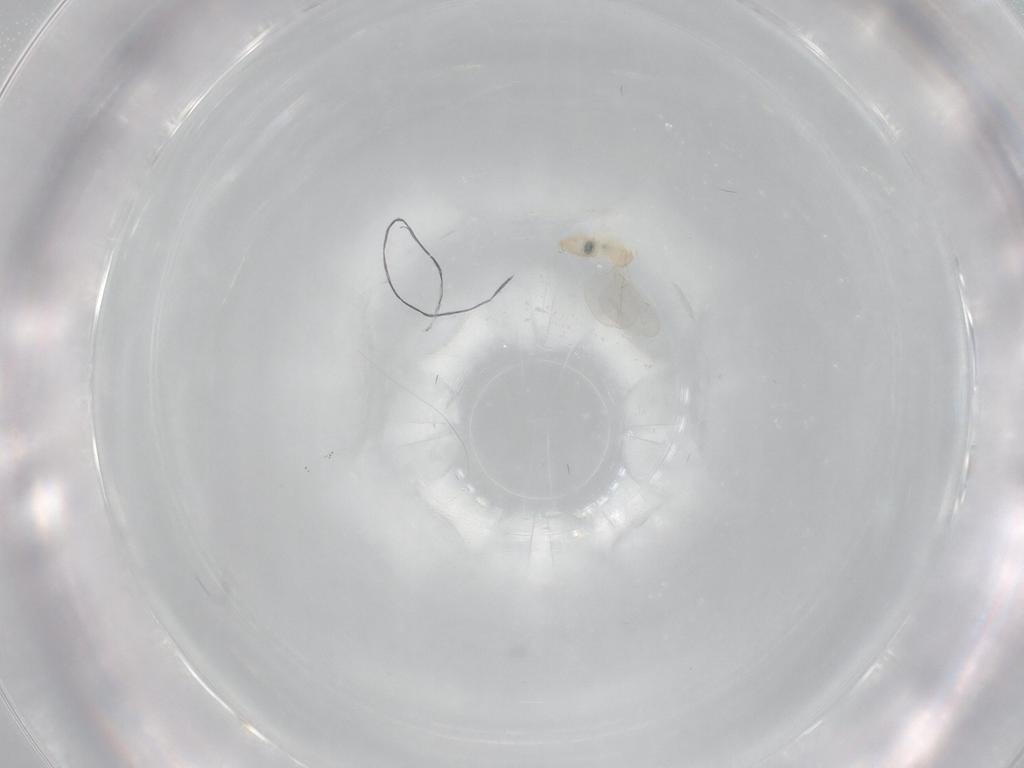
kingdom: Animalia
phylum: Arthropoda
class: Insecta
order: Diptera
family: Cecidomyiidae
